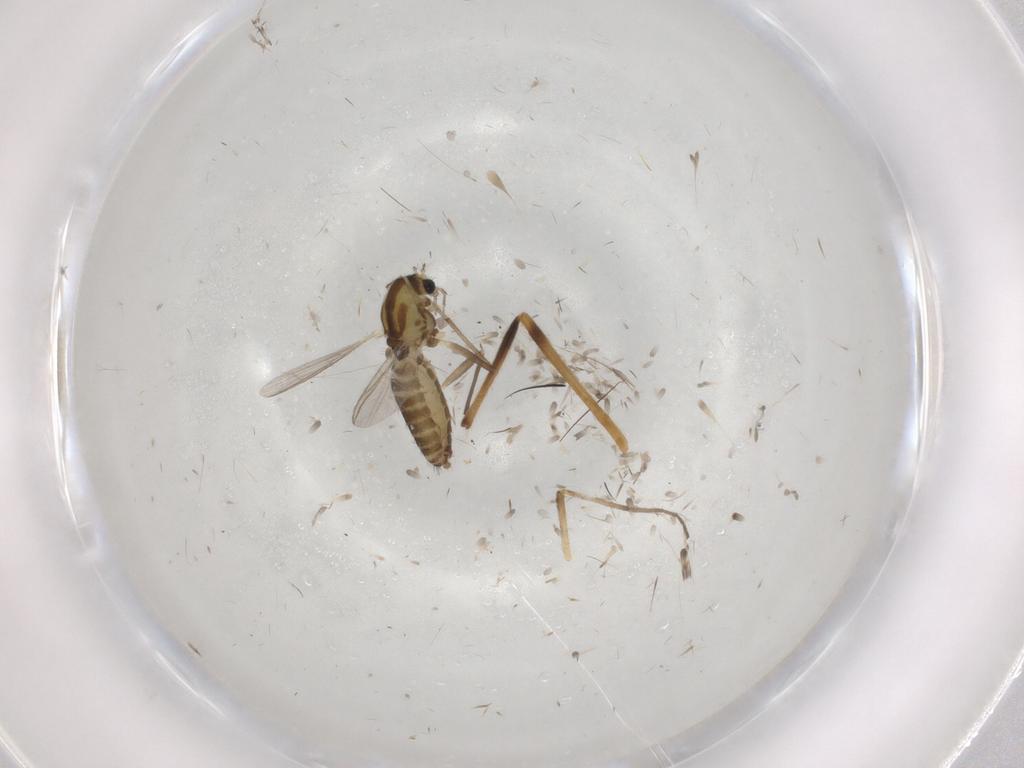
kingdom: Animalia
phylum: Arthropoda
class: Insecta
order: Diptera
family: Chironomidae
